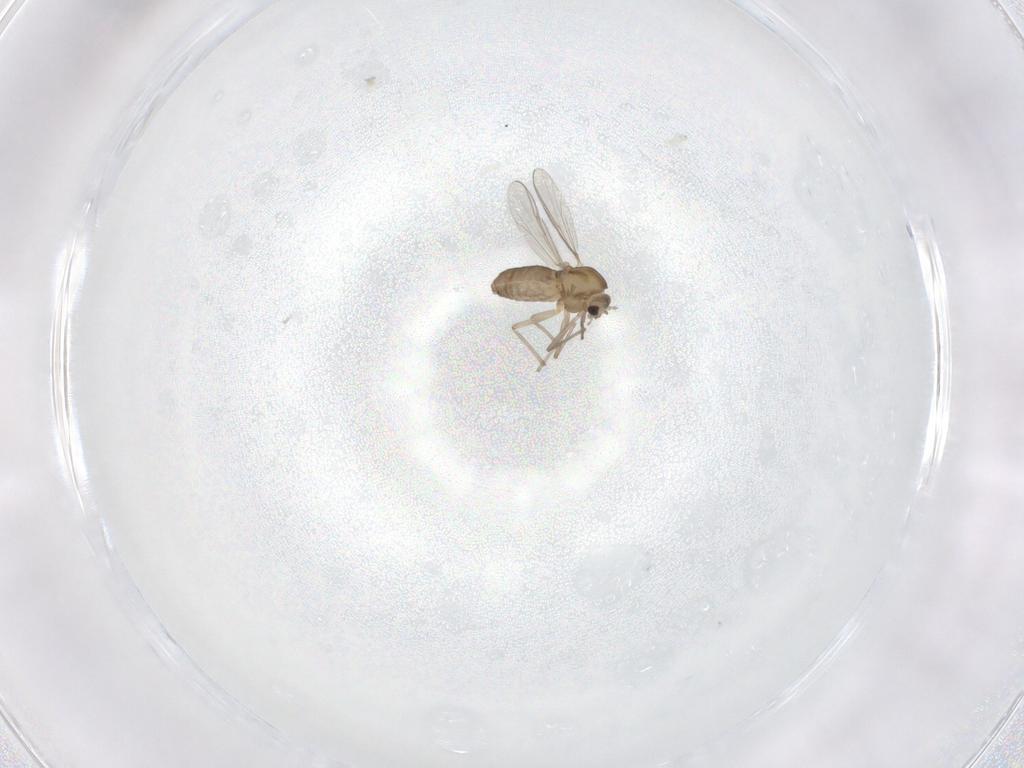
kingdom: Animalia
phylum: Arthropoda
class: Insecta
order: Diptera
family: Chironomidae
